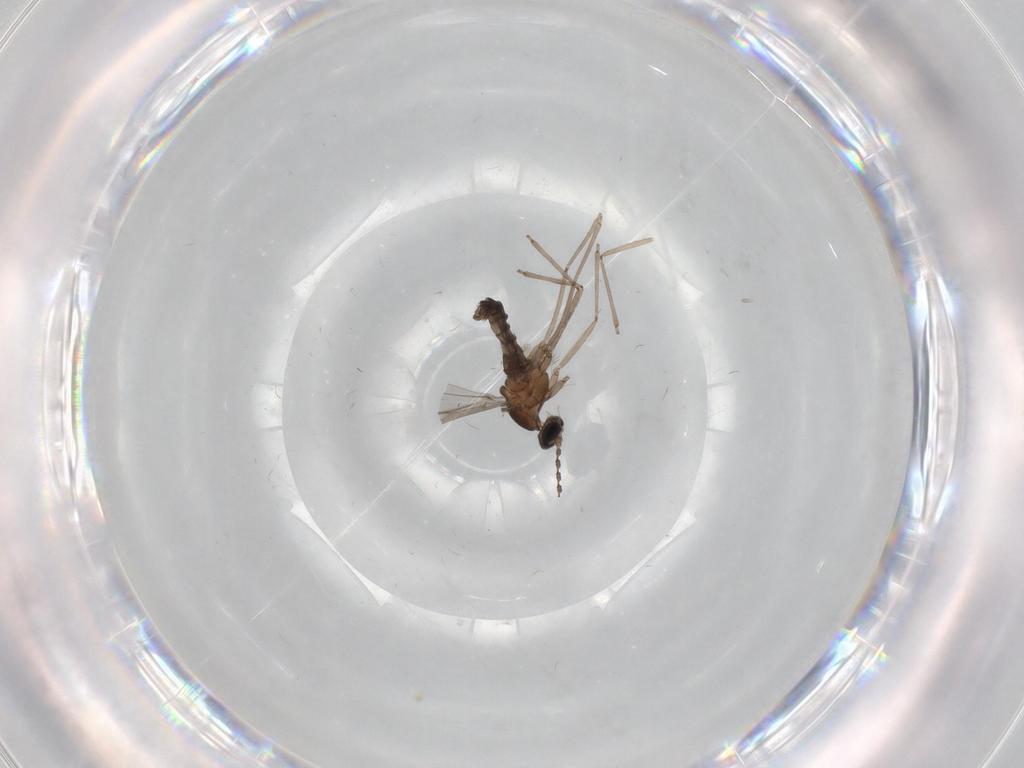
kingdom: Animalia
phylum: Arthropoda
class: Insecta
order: Diptera
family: Cecidomyiidae
